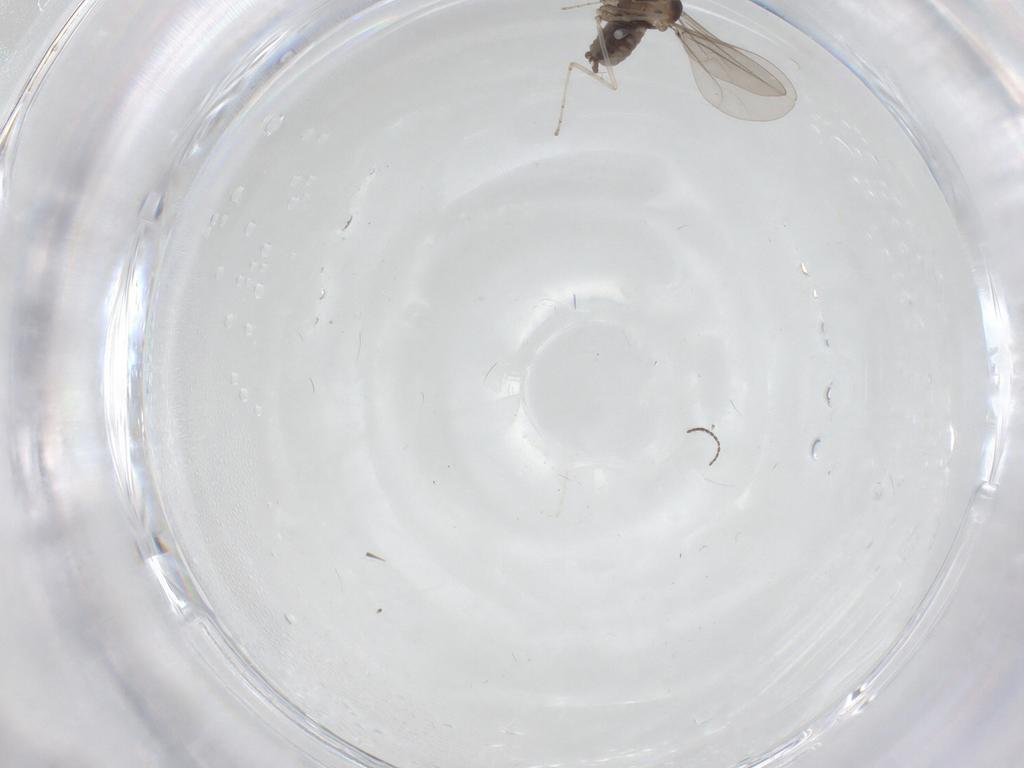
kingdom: Animalia
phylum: Arthropoda
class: Insecta
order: Diptera
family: Cecidomyiidae
